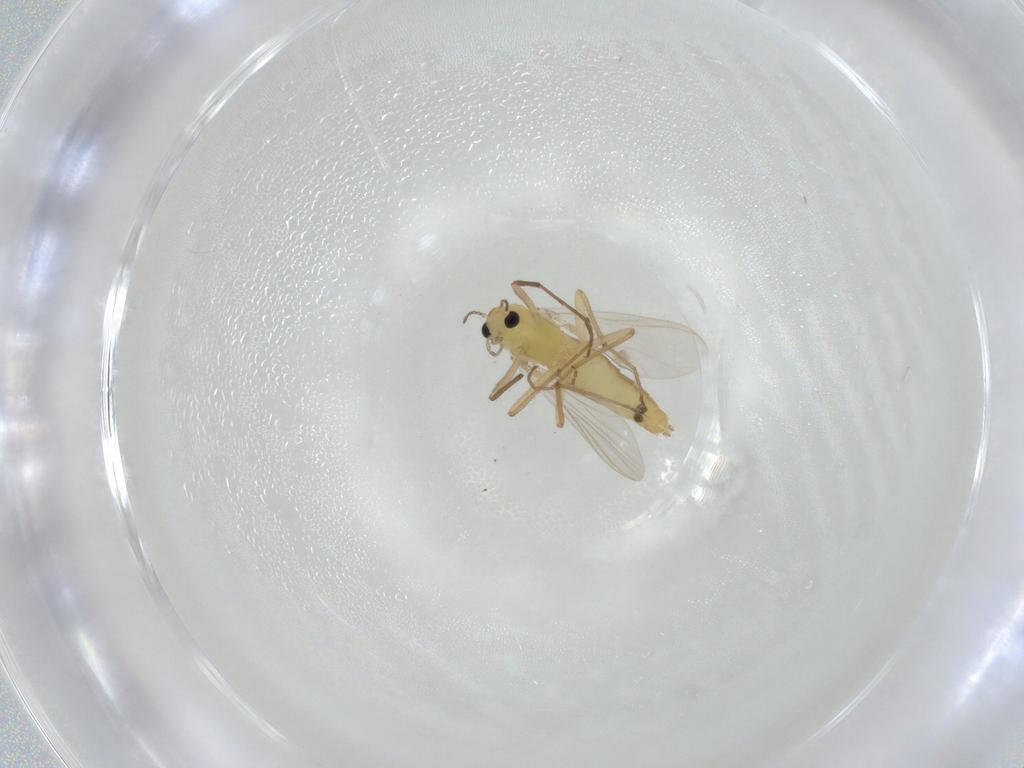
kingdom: Animalia
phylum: Arthropoda
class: Insecta
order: Diptera
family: Chironomidae
